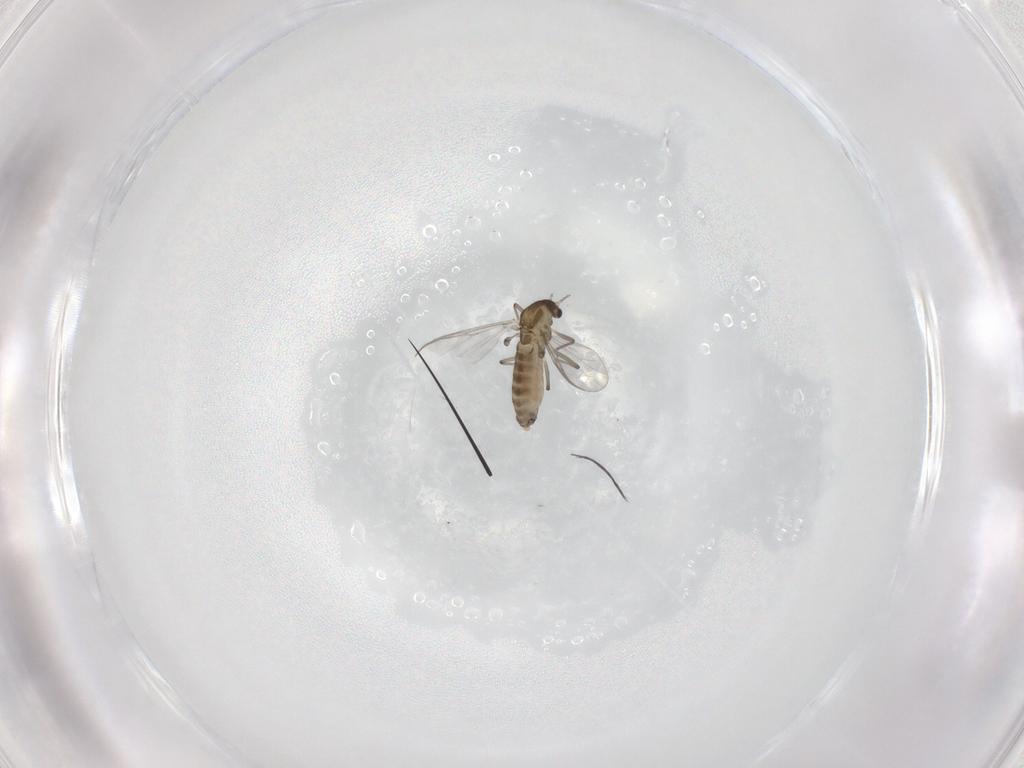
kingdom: Animalia
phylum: Arthropoda
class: Insecta
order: Diptera
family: Chironomidae
